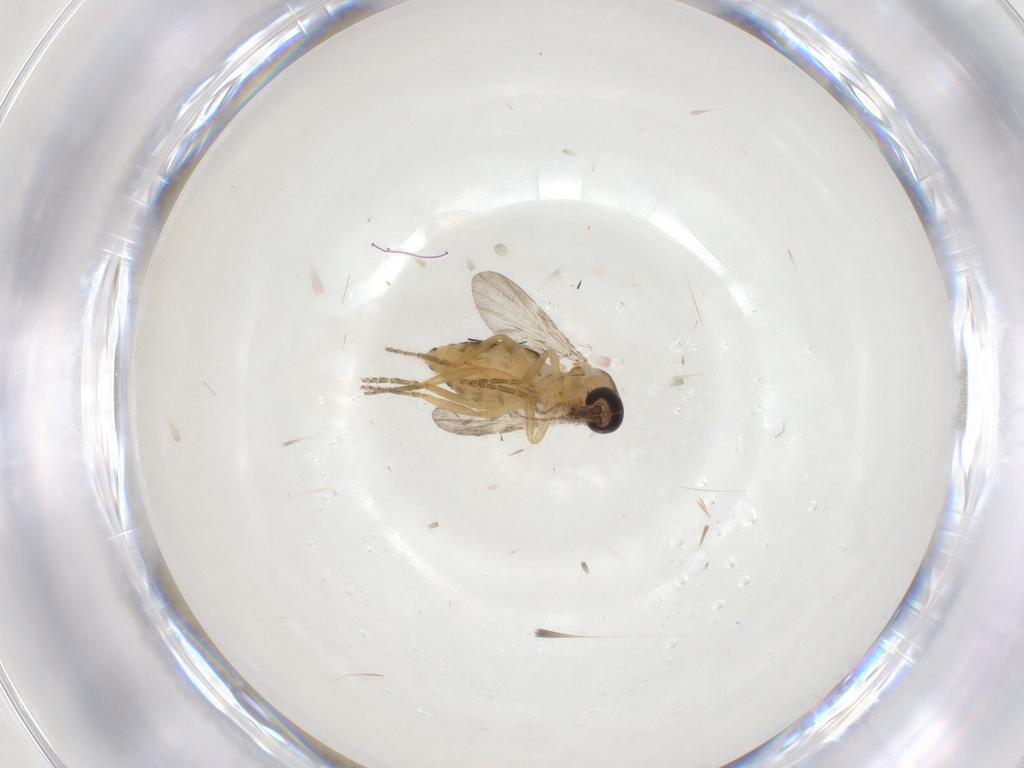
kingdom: Animalia
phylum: Arthropoda
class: Insecta
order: Diptera
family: Ceratopogonidae
